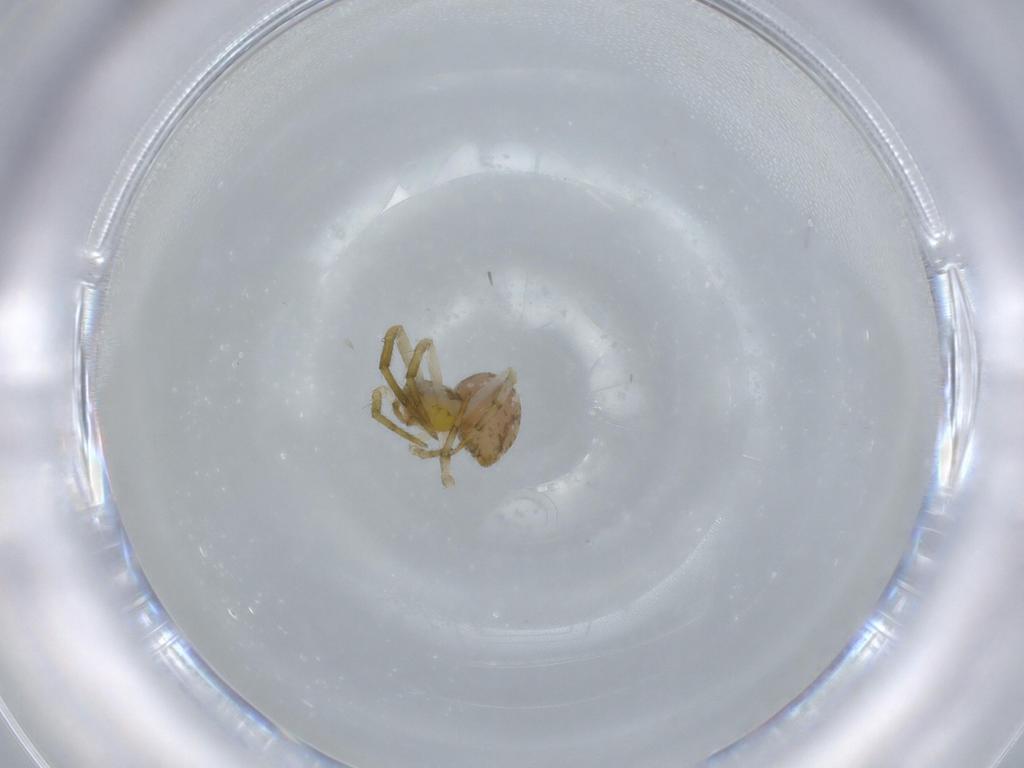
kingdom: Animalia
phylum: Arthropoda
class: Arachnida
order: Araneae
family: Theridiidae
